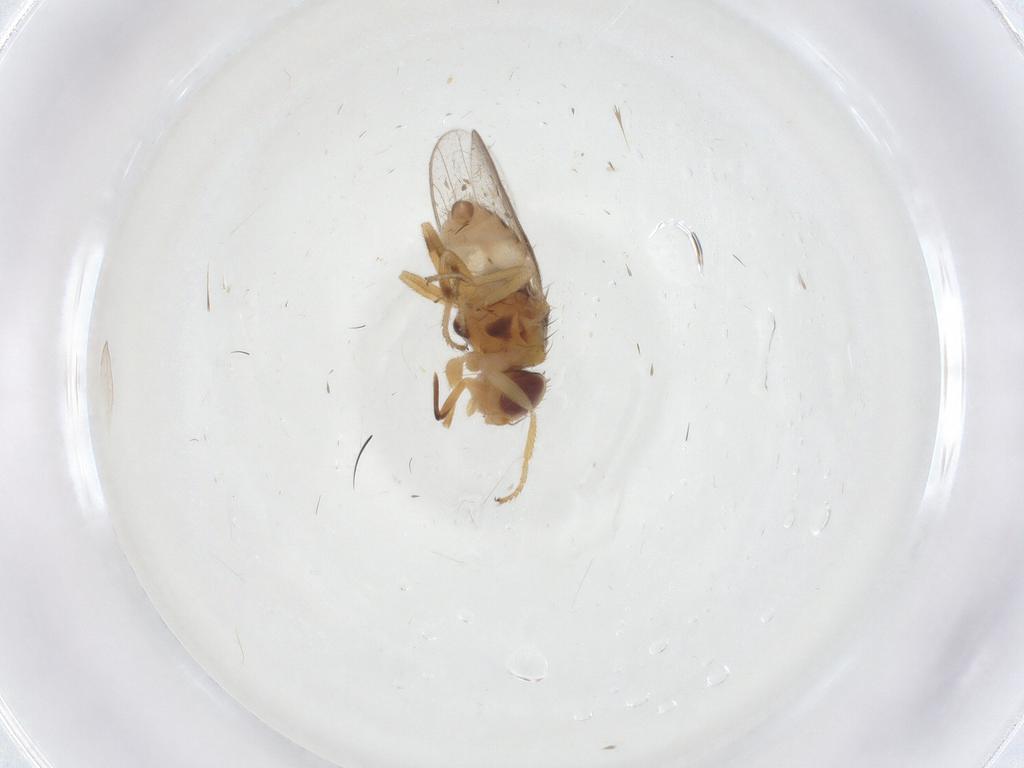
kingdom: Animalia
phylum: Arthropoda
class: Insecta
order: Diptera
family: Chloropidae
